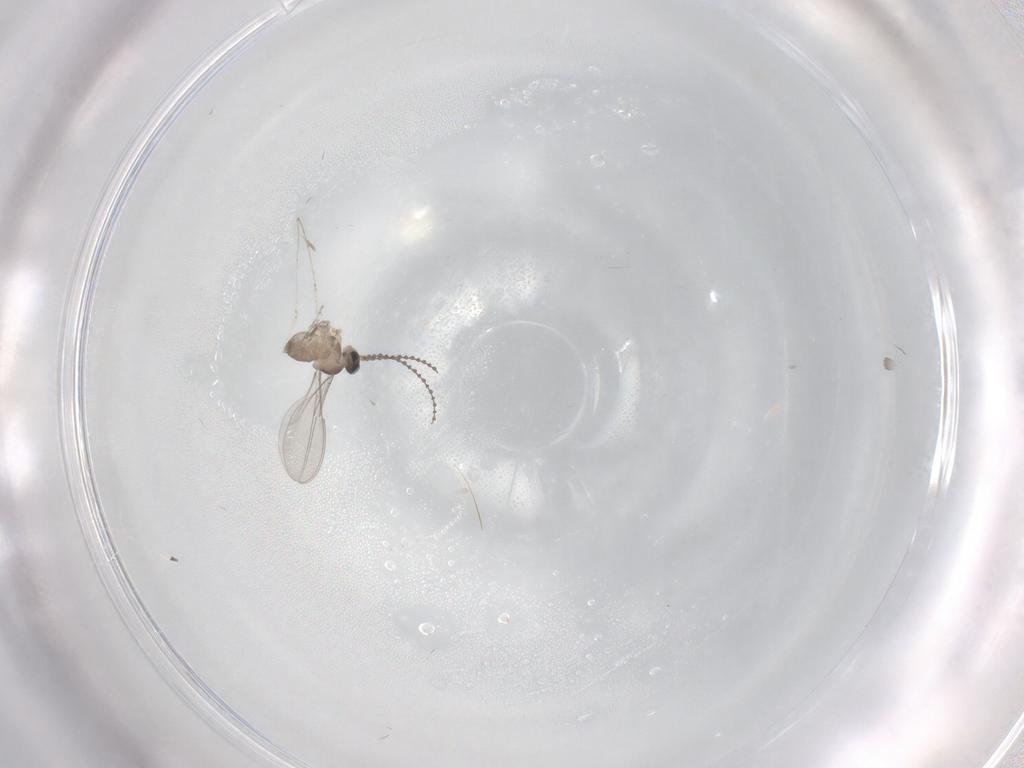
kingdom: Animalia
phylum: Arthropoda
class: Insecta
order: Diptera
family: Cecidomyiidae
